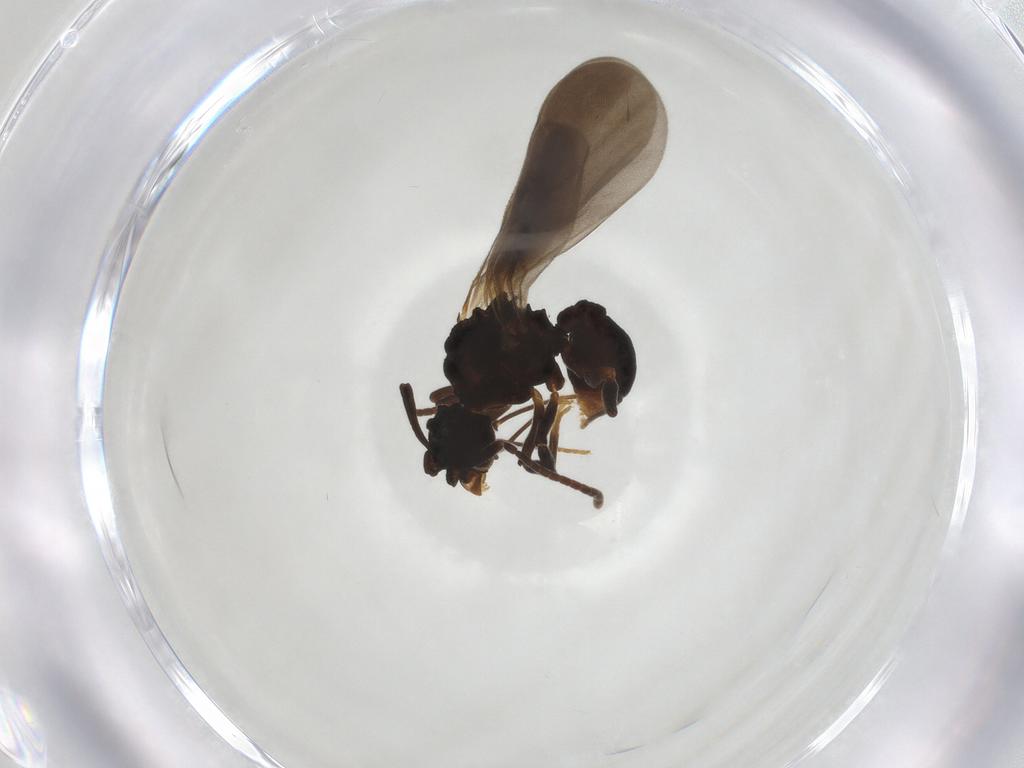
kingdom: Animalia
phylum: Arthropoda
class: Insecta
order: Hymenoptera
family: Formicidae
